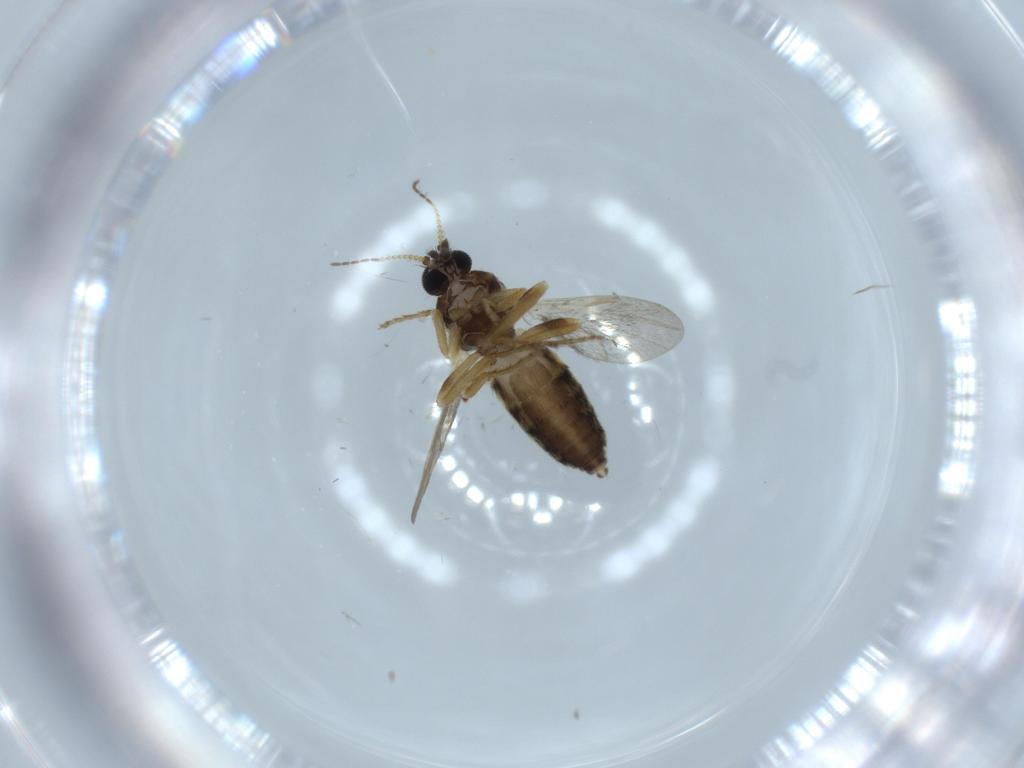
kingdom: Animalia
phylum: Arthropoda
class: Insecta
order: Diptera
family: Ceratopogonidae
